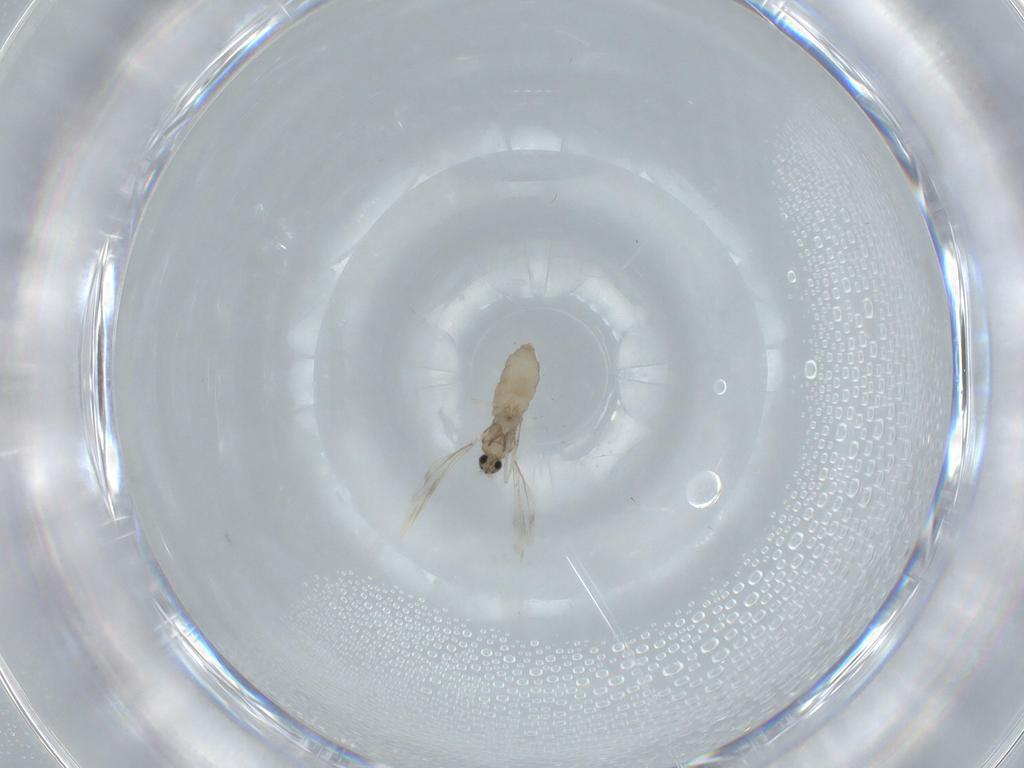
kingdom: Animalia
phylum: Arthropoda
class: Insecta
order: Diptera
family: Cecidomyiidae
